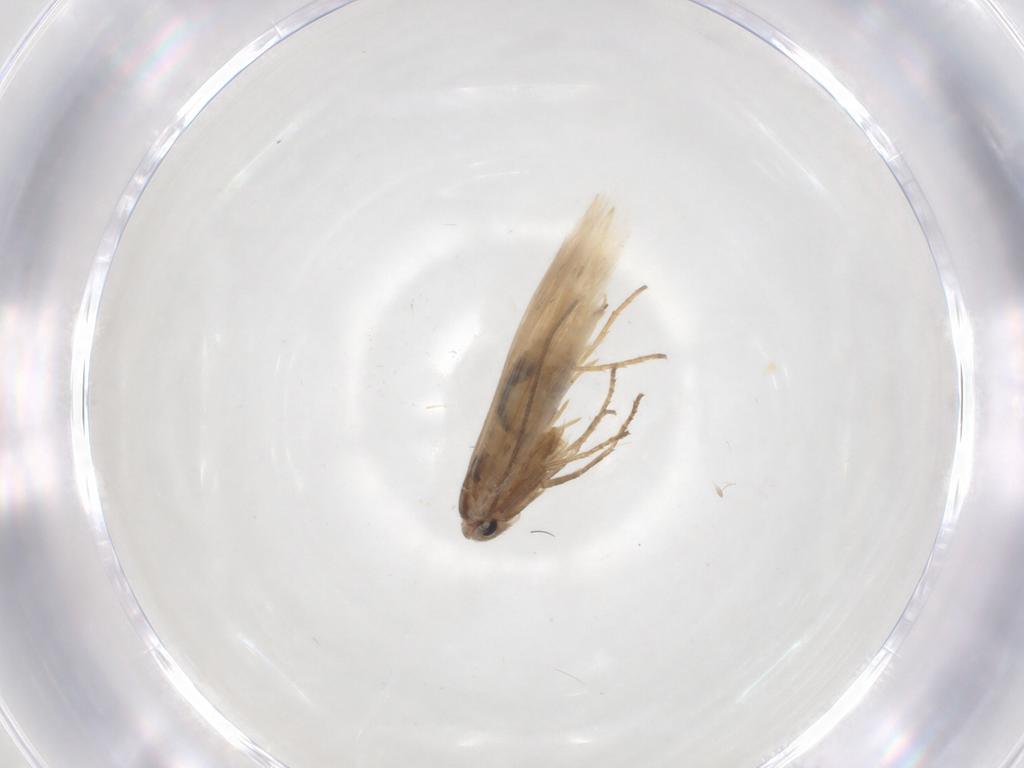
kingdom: Animalia
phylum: Arthropoda
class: Insecta
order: Lepidoptera
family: Bucculatricidae
